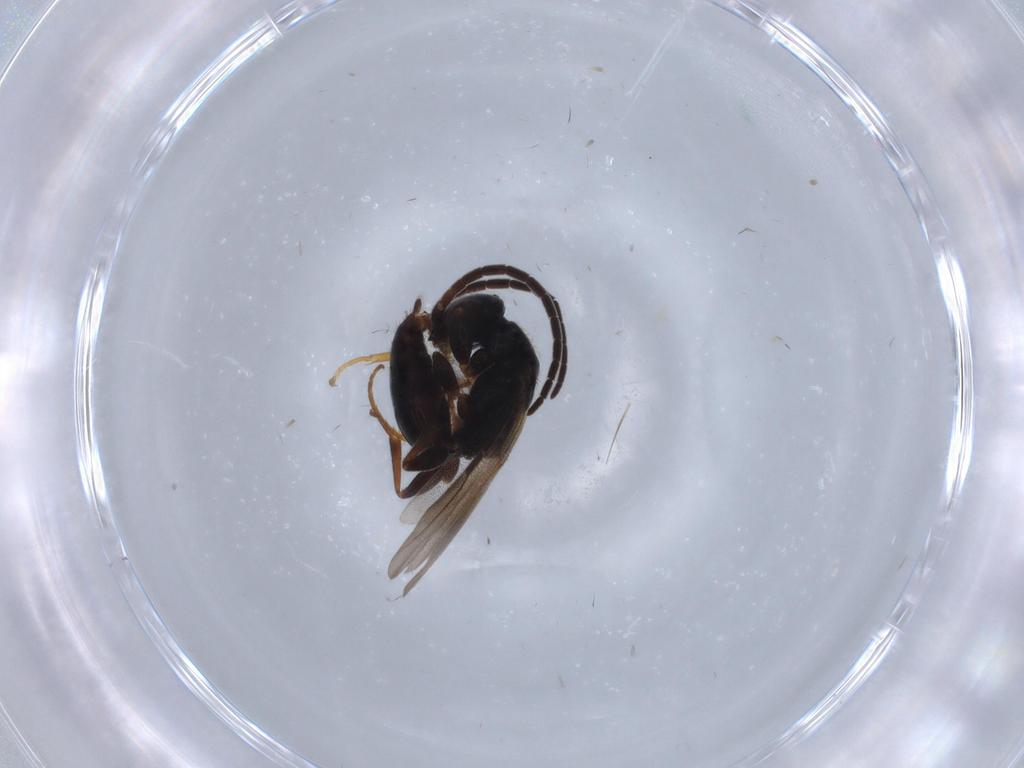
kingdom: Animalia
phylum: Arthropoda
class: Insecta
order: Hymenoptera
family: Bethylidae
